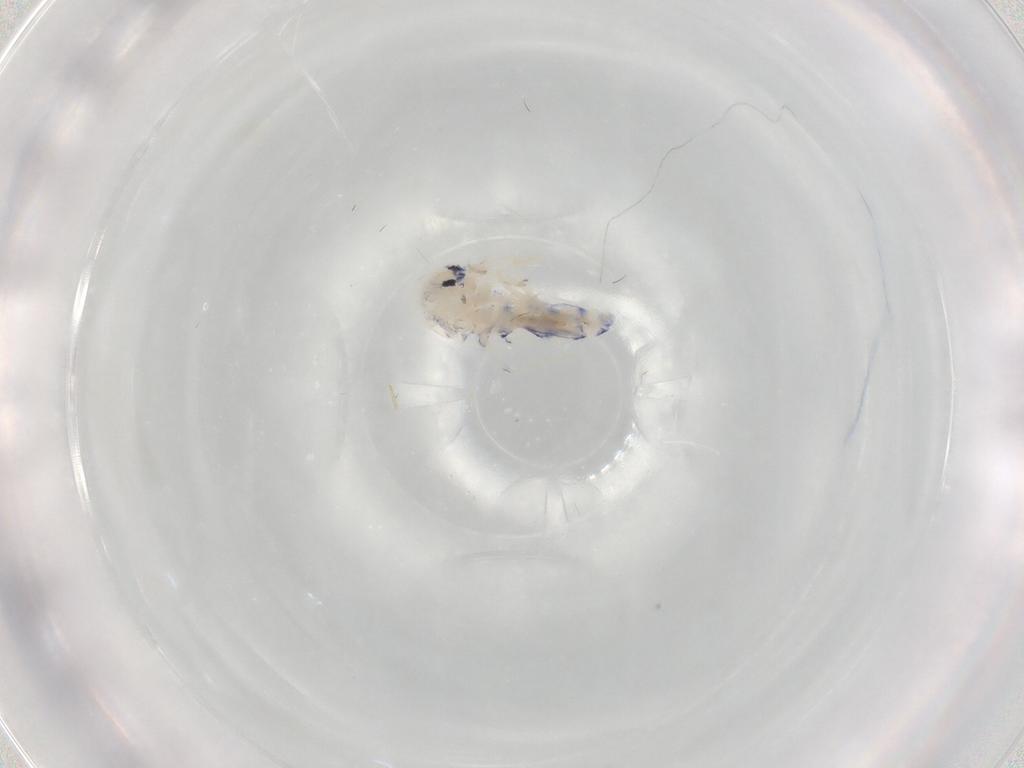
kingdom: Animalia
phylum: Arthropoda
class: Collembola
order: Entomobryomorpha
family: Entomobryidae
